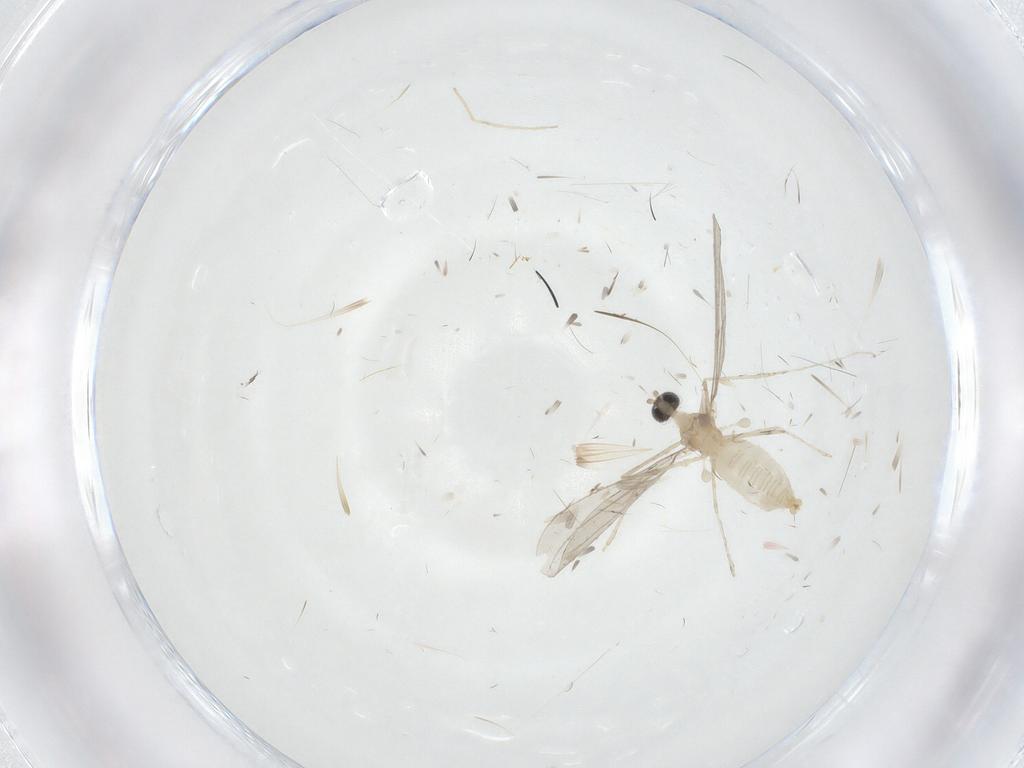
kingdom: Animalia
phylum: Arthropoda
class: Insecta
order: Diptera
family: Cecidomyiidae
